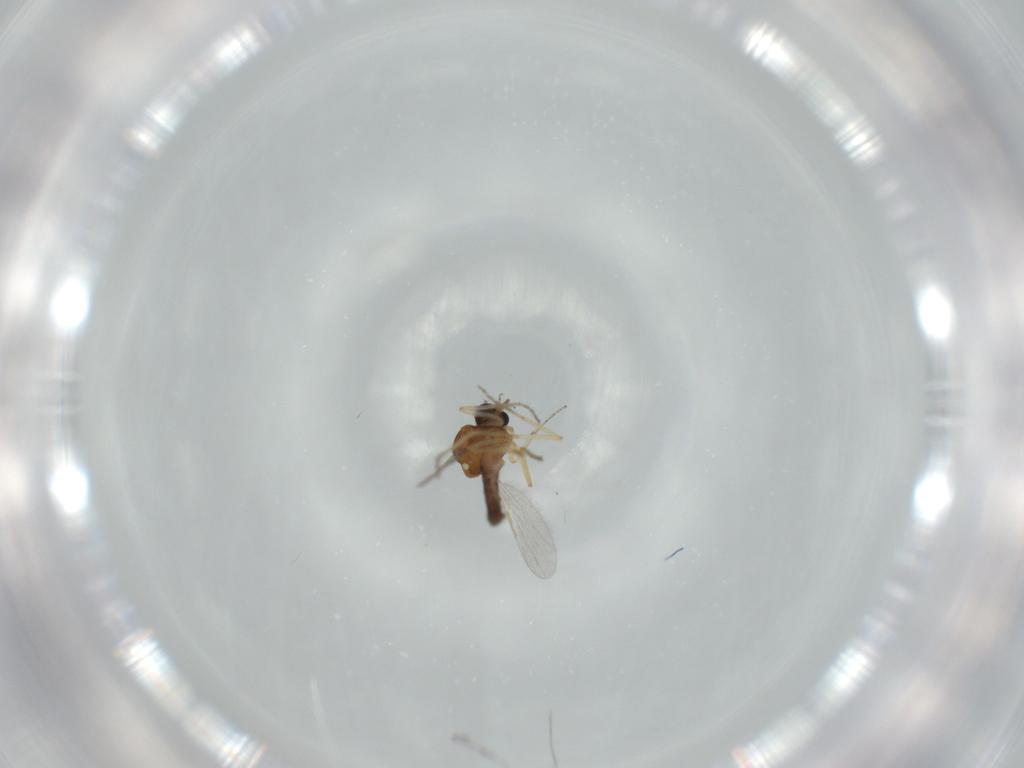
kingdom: Animalia
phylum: Arthropoda
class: Insecta
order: Diptera
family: Ceratopogonidae
